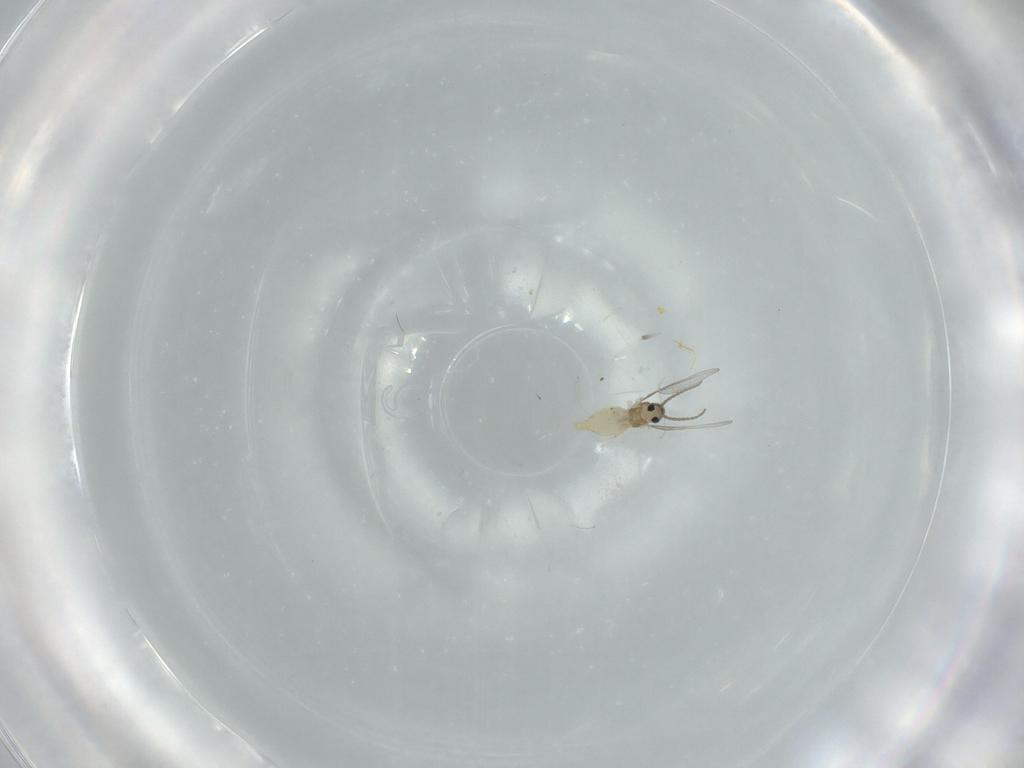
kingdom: Animalia
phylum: Arthropoda
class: Insecta
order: Diptera
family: Cecidomyiidae
